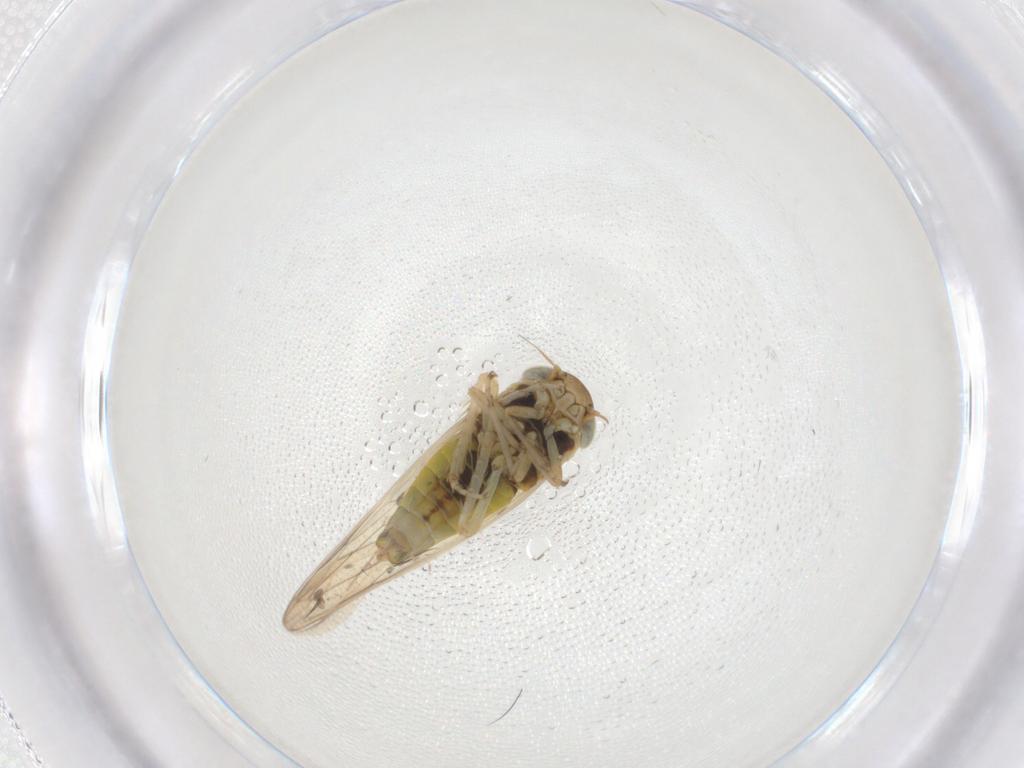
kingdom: Animalia
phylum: Arthropoda
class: Insecta
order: Hemiptera
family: Cicadellidae
